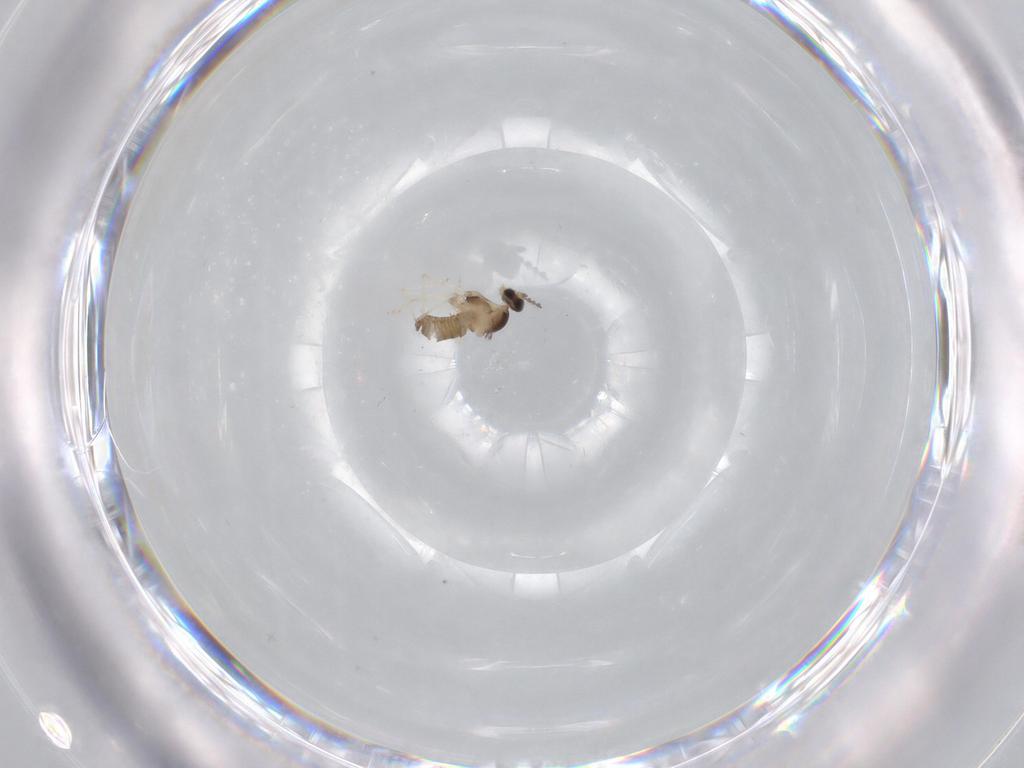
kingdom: Animalia
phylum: Arthropoda
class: Insecta
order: Diptera
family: Cecidomyiidae
